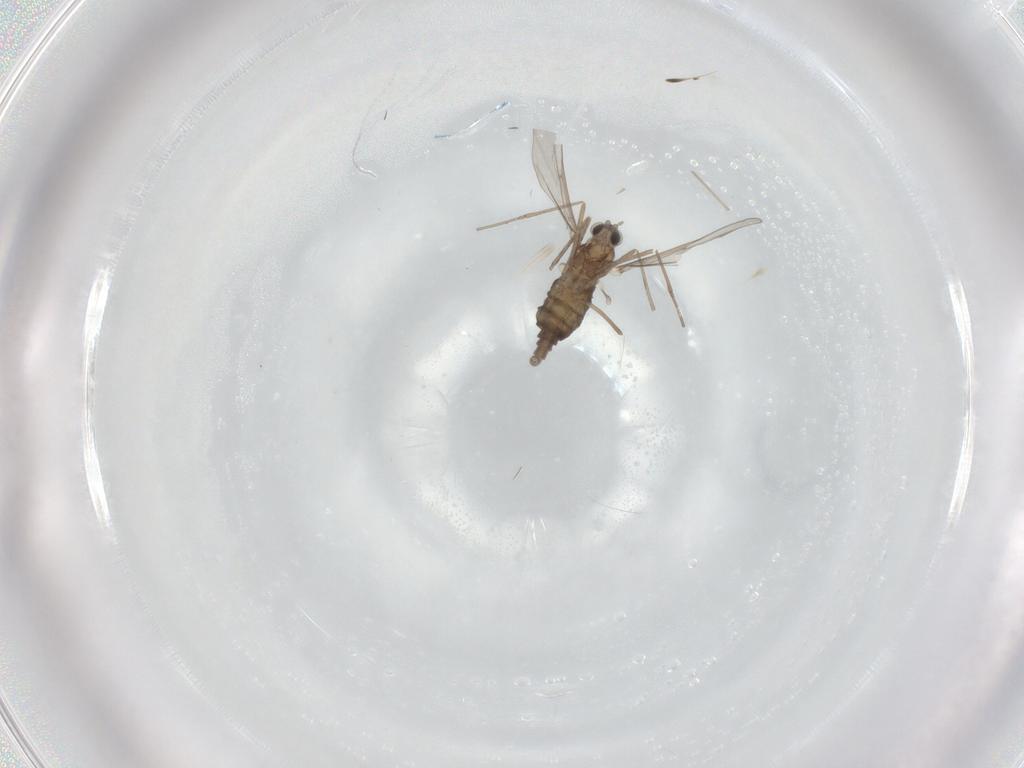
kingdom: Animalia
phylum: Arthropoda
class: Insecta
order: Diptera
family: Cecidomyiidae
